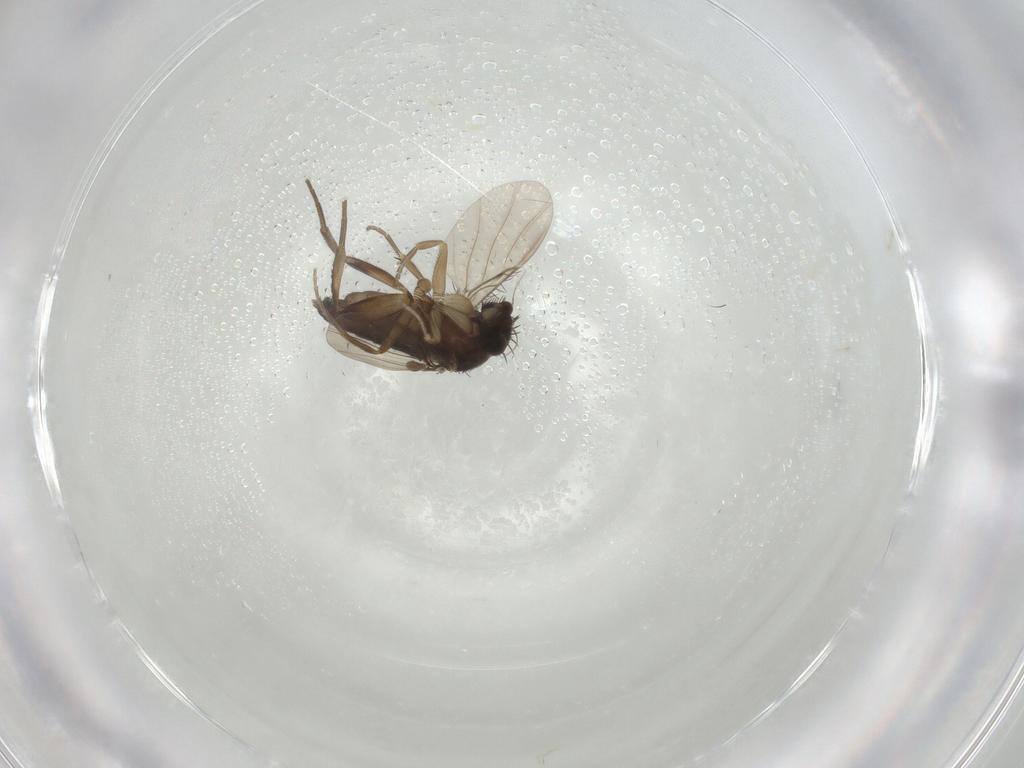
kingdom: Animalia
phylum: Arthropoda
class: Insecta
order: Diptera
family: Phoridae
